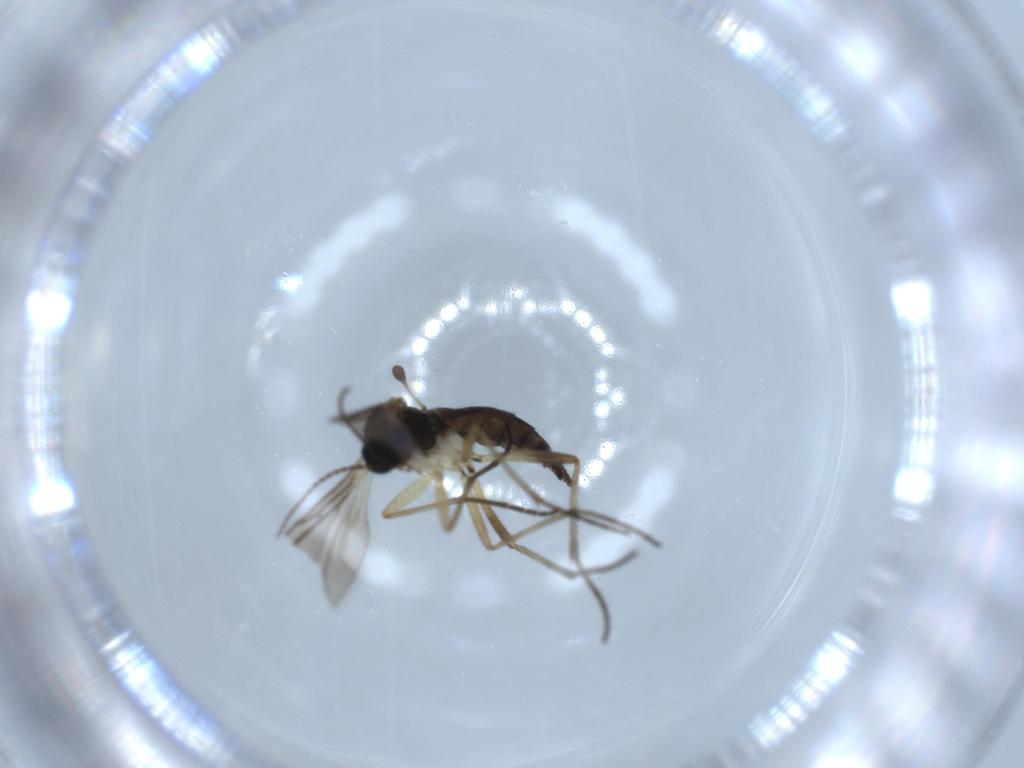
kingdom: Animalia
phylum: Arthropoda
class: Insecta
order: Diptera
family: Sciaridae
